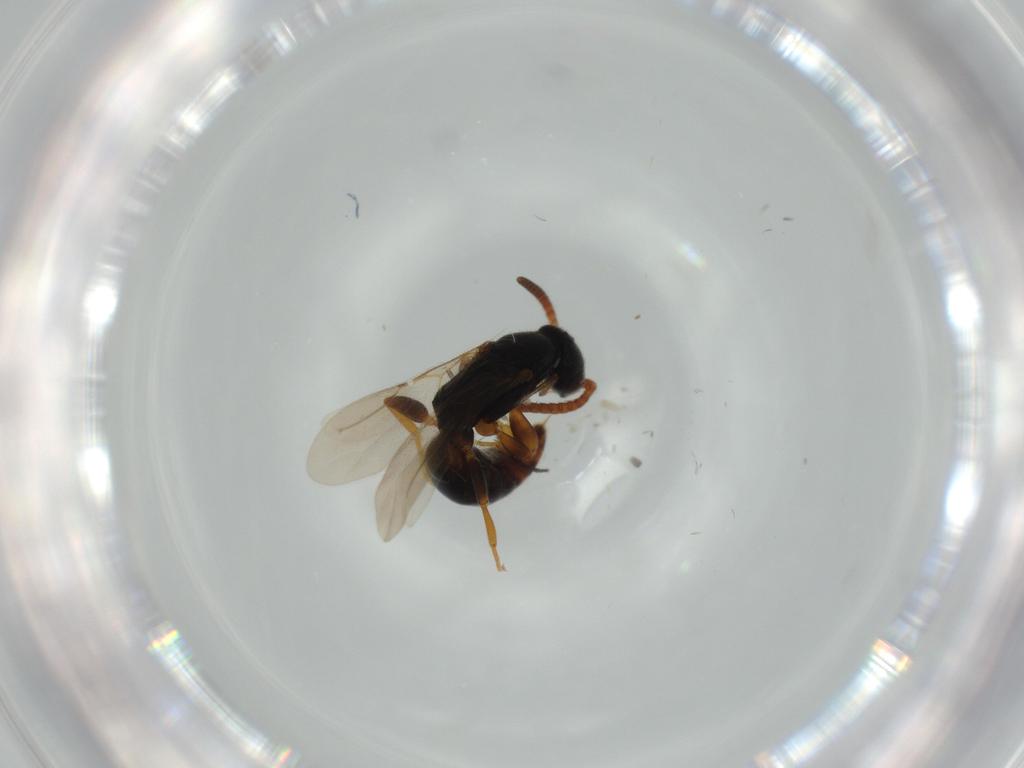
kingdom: Animalia
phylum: Arthropoda
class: Insecta
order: Hymenoptera
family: Bethylidae
